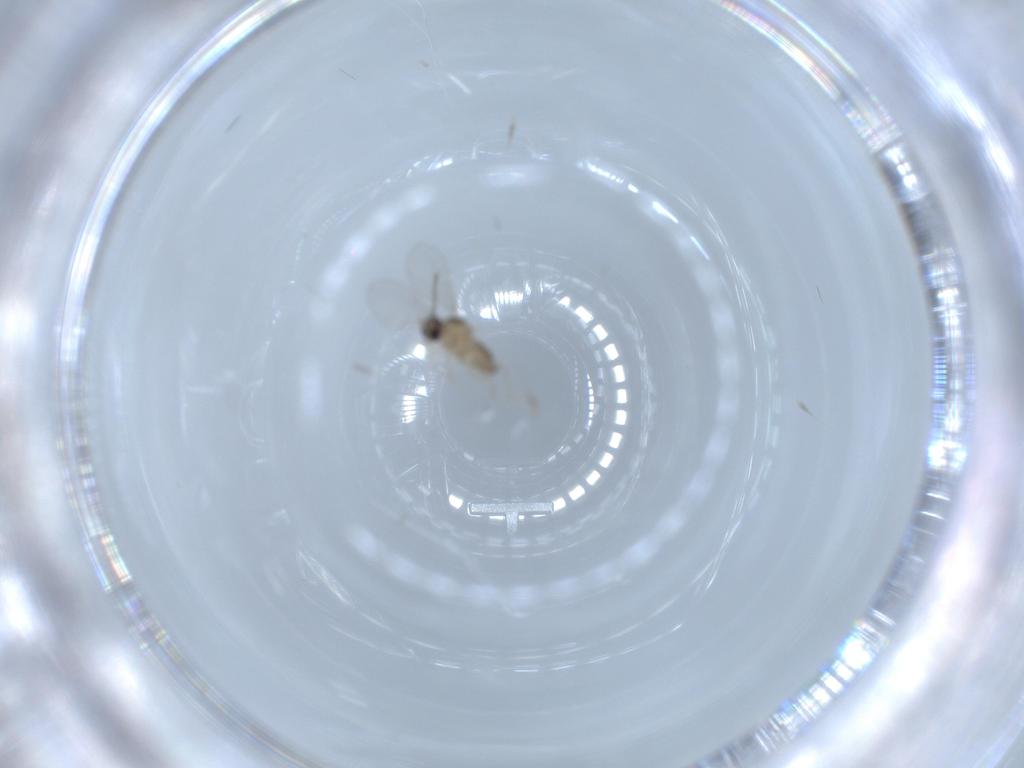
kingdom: Animalia
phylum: Arthropoda
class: Insecta
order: Diptera
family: Cecidomyiidae
